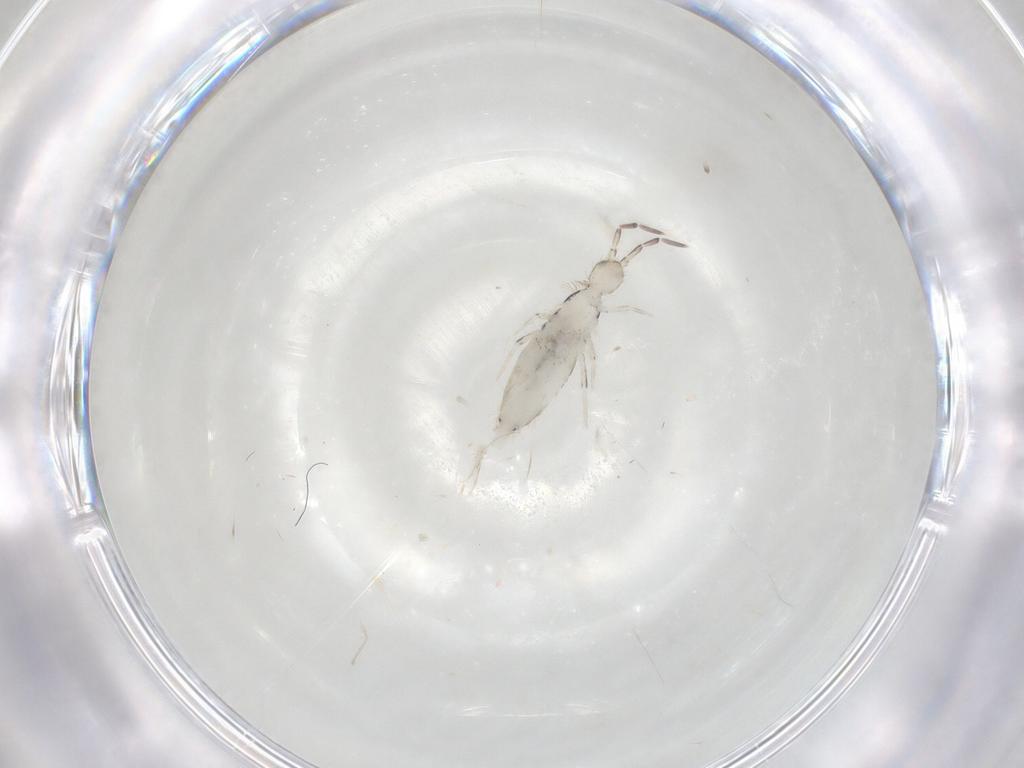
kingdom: Animalia
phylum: Arthropoda
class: Collembola
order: Entomobryomorpha
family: Entomobryidae
